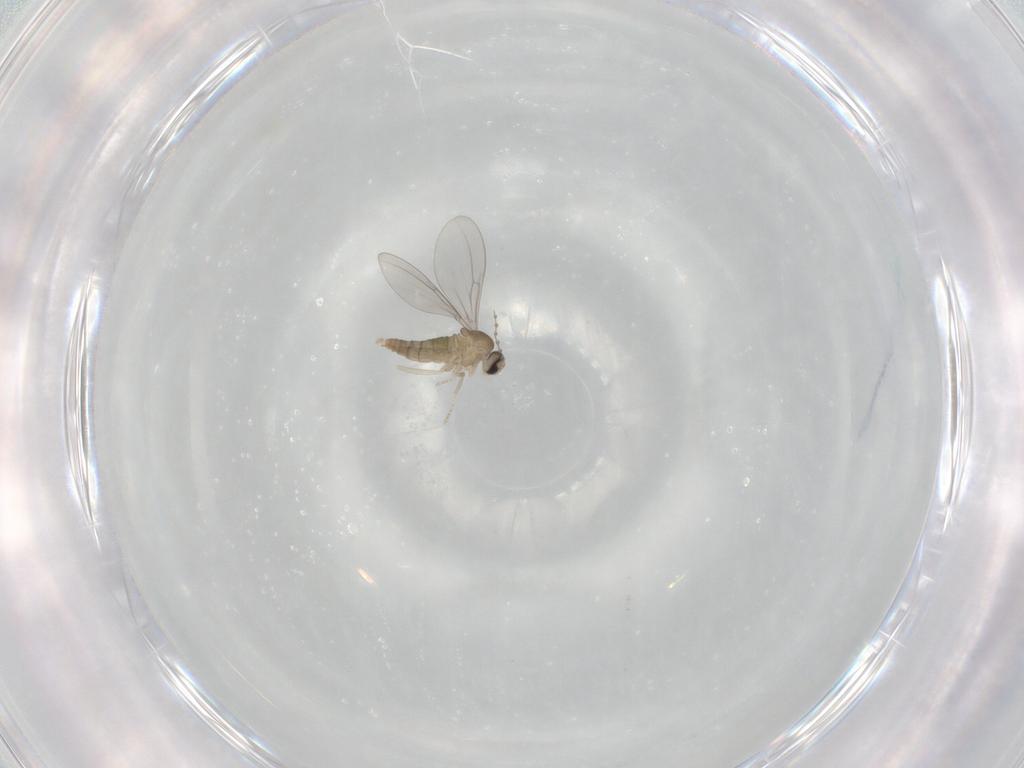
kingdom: Animalia
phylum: Arthropoda
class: Insecta
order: Diptera
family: Cecidomyiidae
